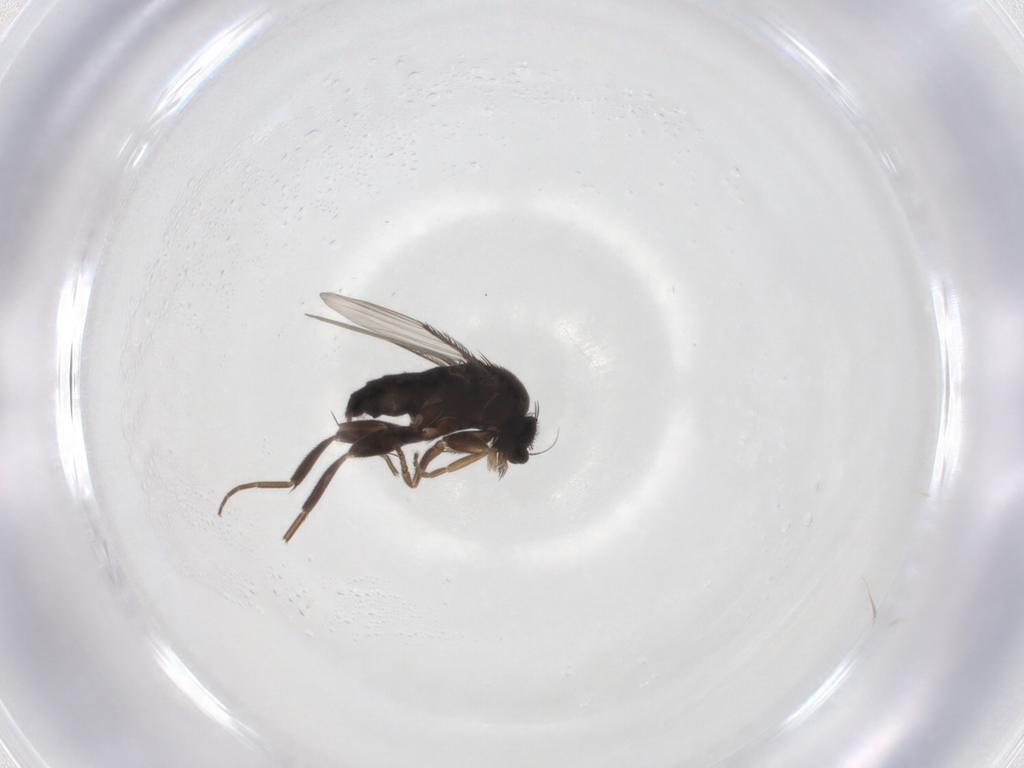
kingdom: Animalia
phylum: Arthropoda
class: Insecta
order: Diptera
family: Phoridae
